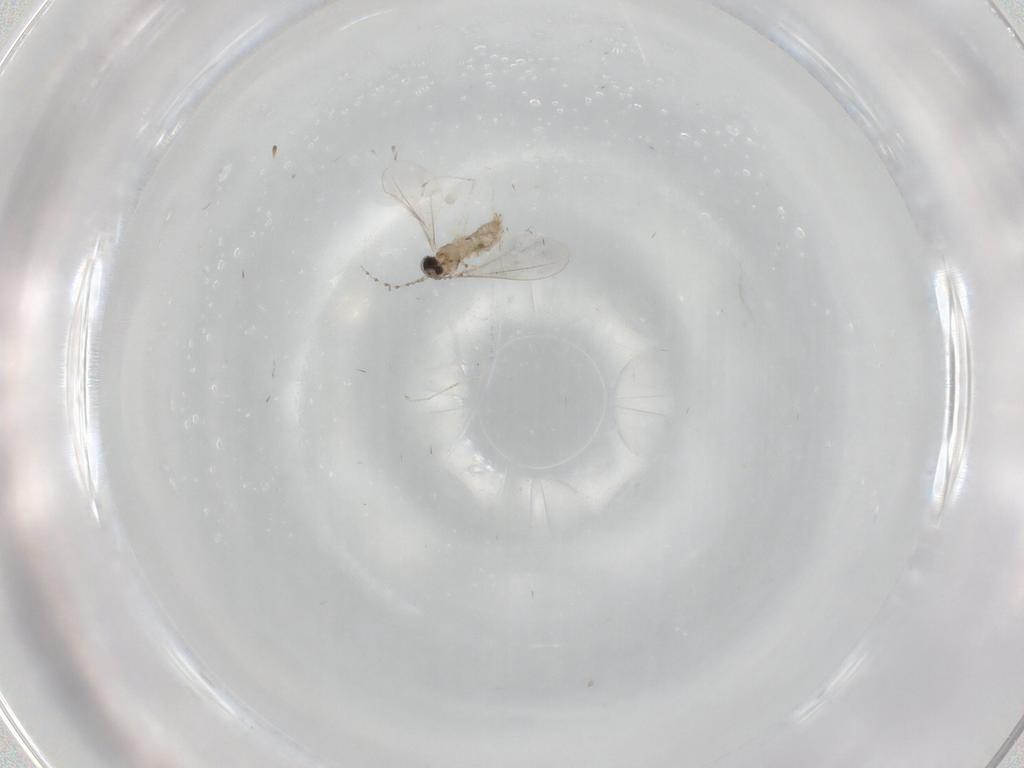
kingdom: Animalia
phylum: Arthropoda
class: Insecta
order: Diptera
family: Cecidomyiidae
